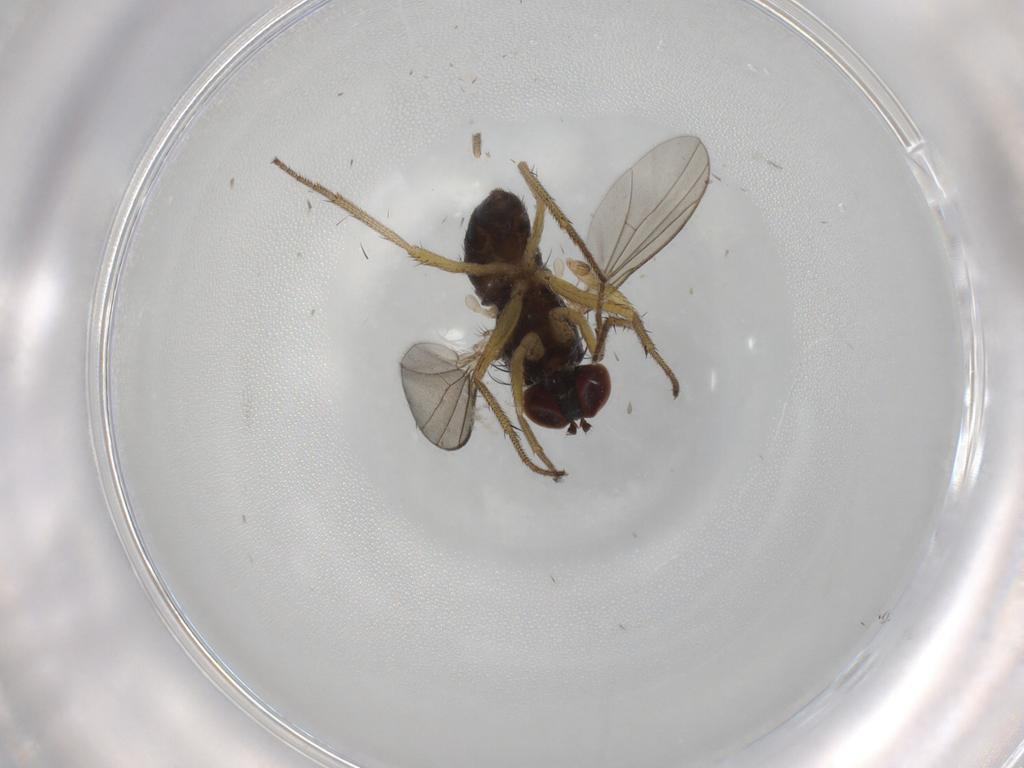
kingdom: Animalia
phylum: Arthropoda
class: Insecta
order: Diptera
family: Dolichopodidae
